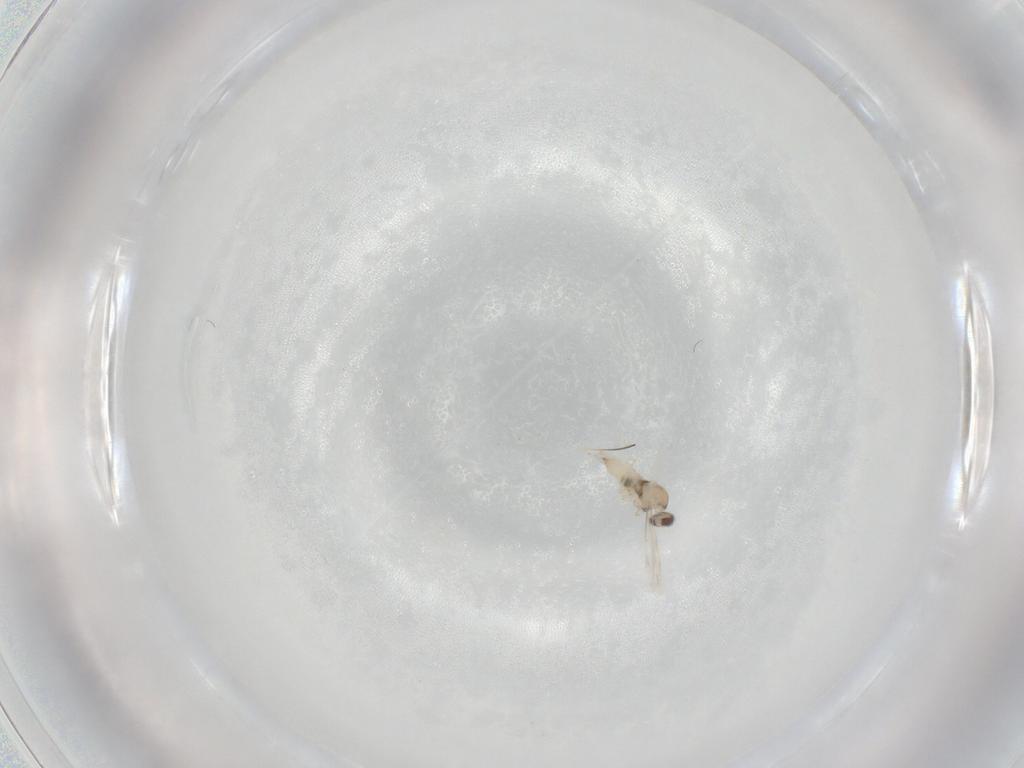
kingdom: Animalia
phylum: Arthropoda
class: Insecta
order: Diptera
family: Cecidomyiidae
